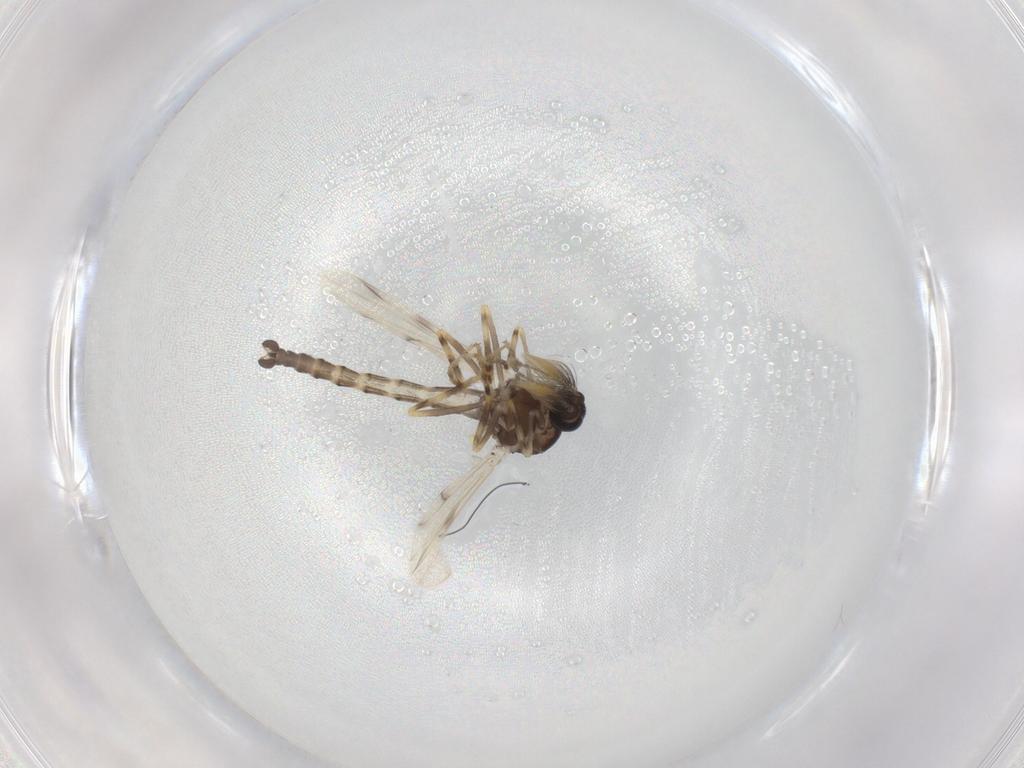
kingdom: Animalia
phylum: Arthropoda
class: Insecta
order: Diptera
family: Ceratopogonidae
